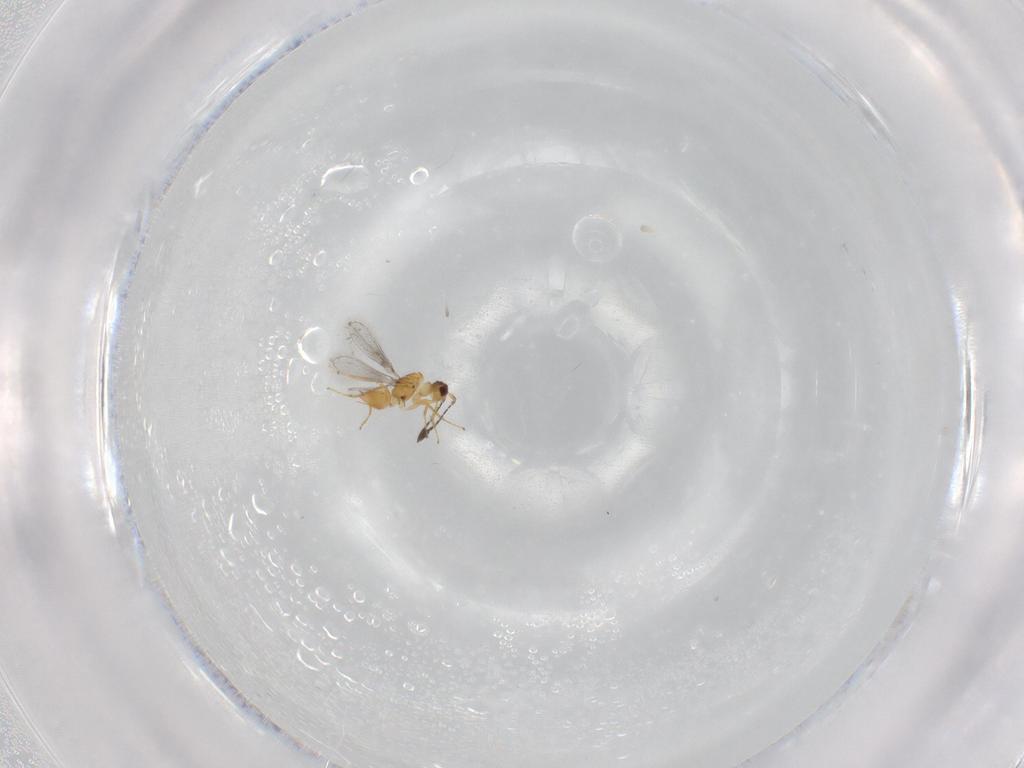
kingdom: Animalia
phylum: Arthropoda
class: Insecta
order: Hymenoptera
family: Mymaridae
